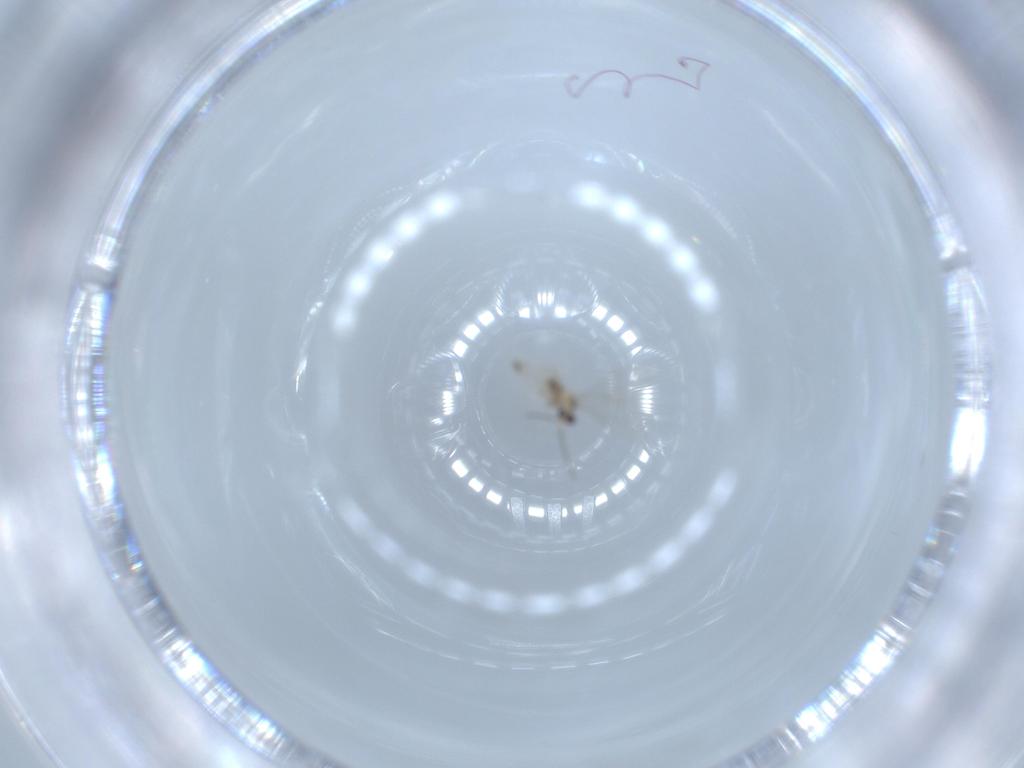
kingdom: Animalia
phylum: Arthropoda
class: Insecta
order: Diptera
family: Cecidomyiidae
